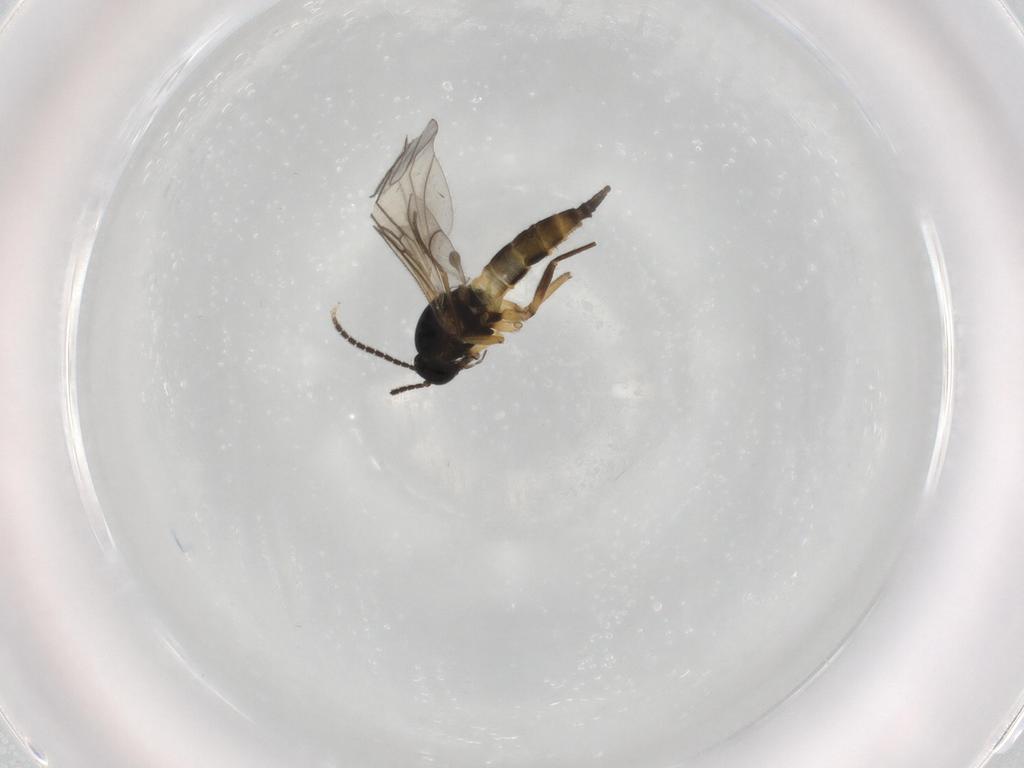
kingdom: Animalia
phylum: Arthropoda
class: Insecta
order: Diptera
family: Sciaridae
